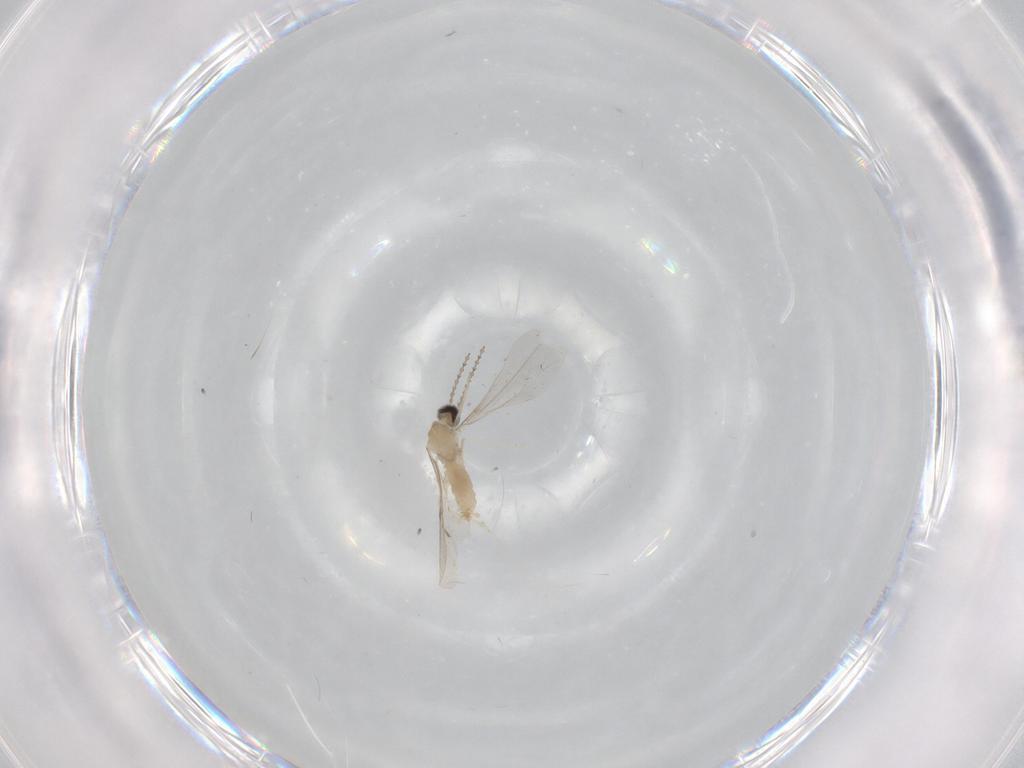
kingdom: Animalia
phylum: Arthropoda
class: Insecta
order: Diptera
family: Cecidomyiidae
